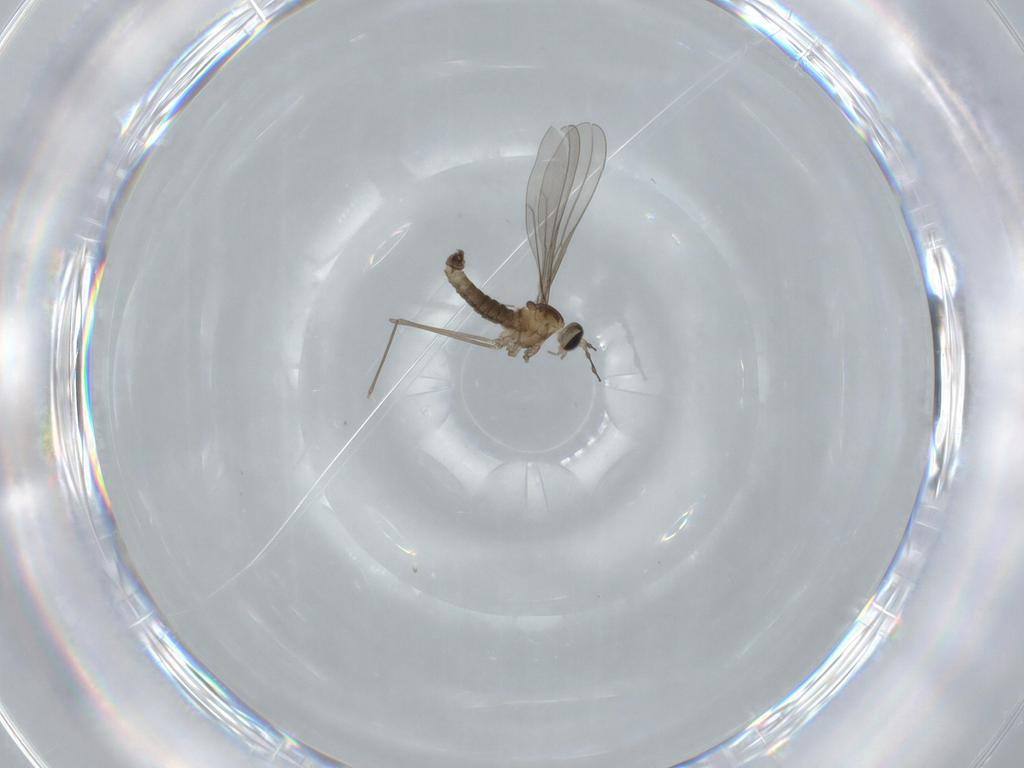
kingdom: Animalia
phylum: Arthropoda
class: Insecta
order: Diptera
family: Cecidomyiidae
